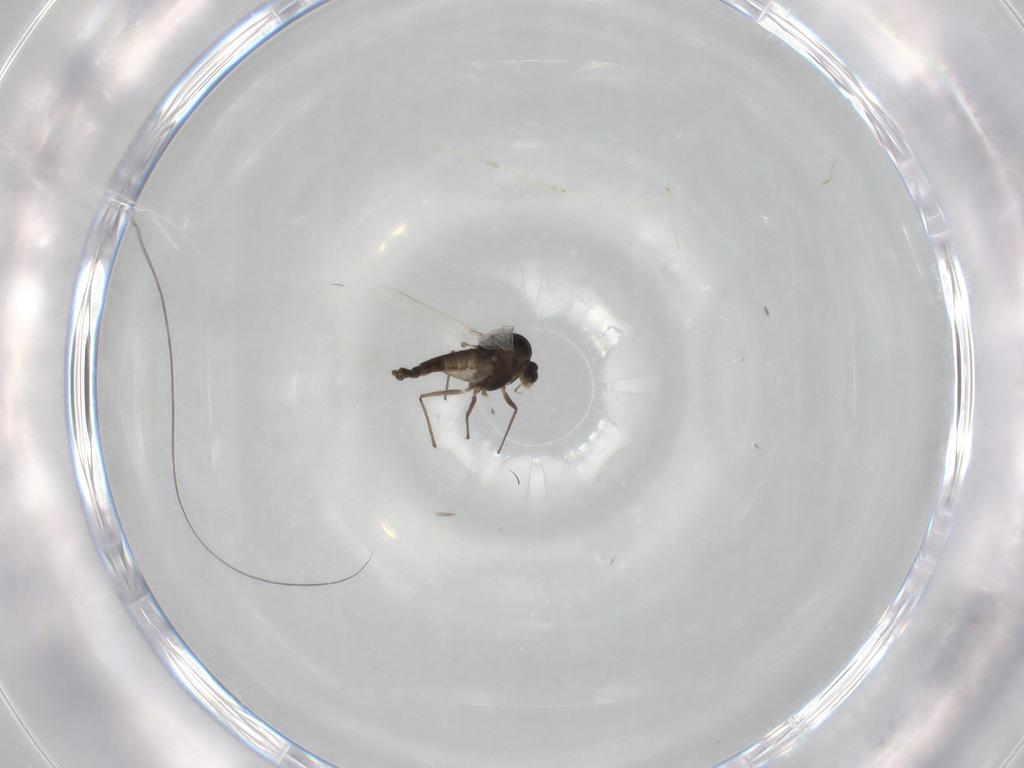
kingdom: Animalia
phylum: Arthropoda
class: Insecta
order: Diptera
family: Chironomidae
